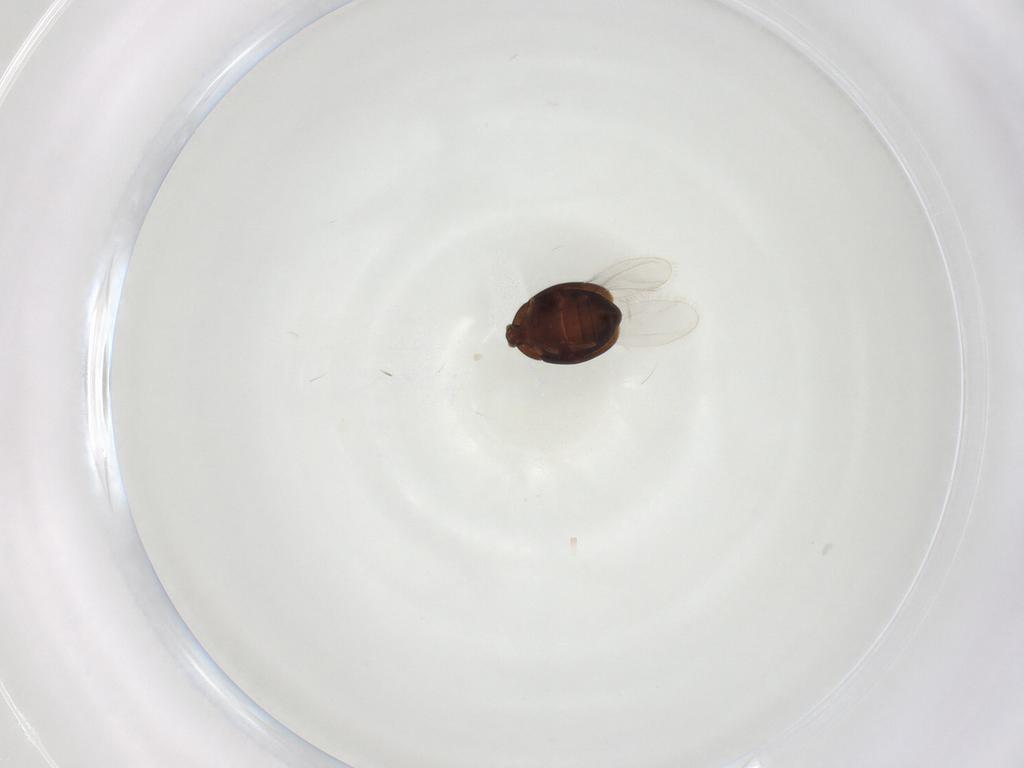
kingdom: Animalia
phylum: Arthropoda
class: Insecta
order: Coleoptera
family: Corylophidae
